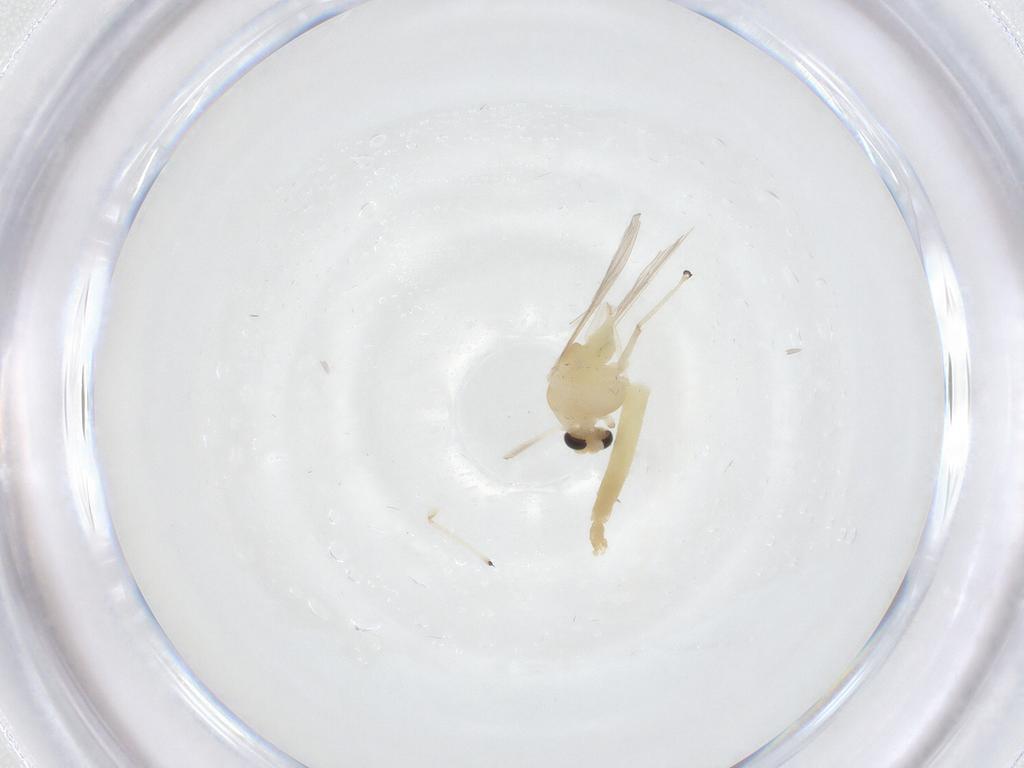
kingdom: Animalia
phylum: Arthropoda
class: Insecta
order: Diptera
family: Chironomidae
